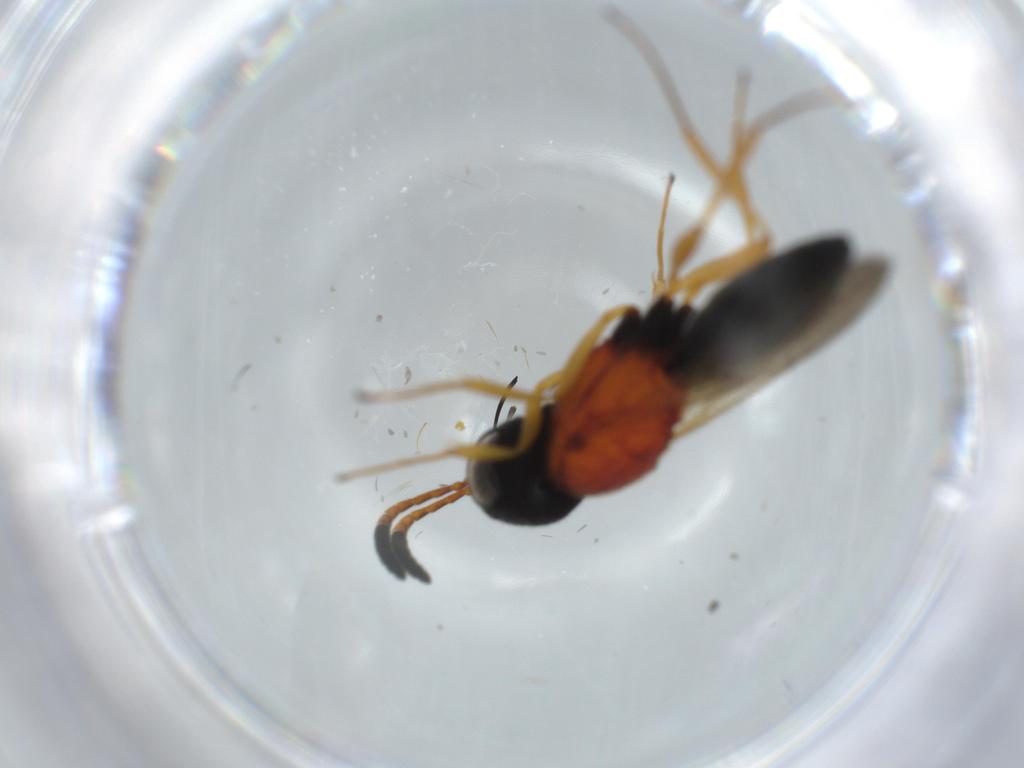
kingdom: Animalia
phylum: Arthropoda
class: Insecta
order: Hymenoptera
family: Scelionidae
